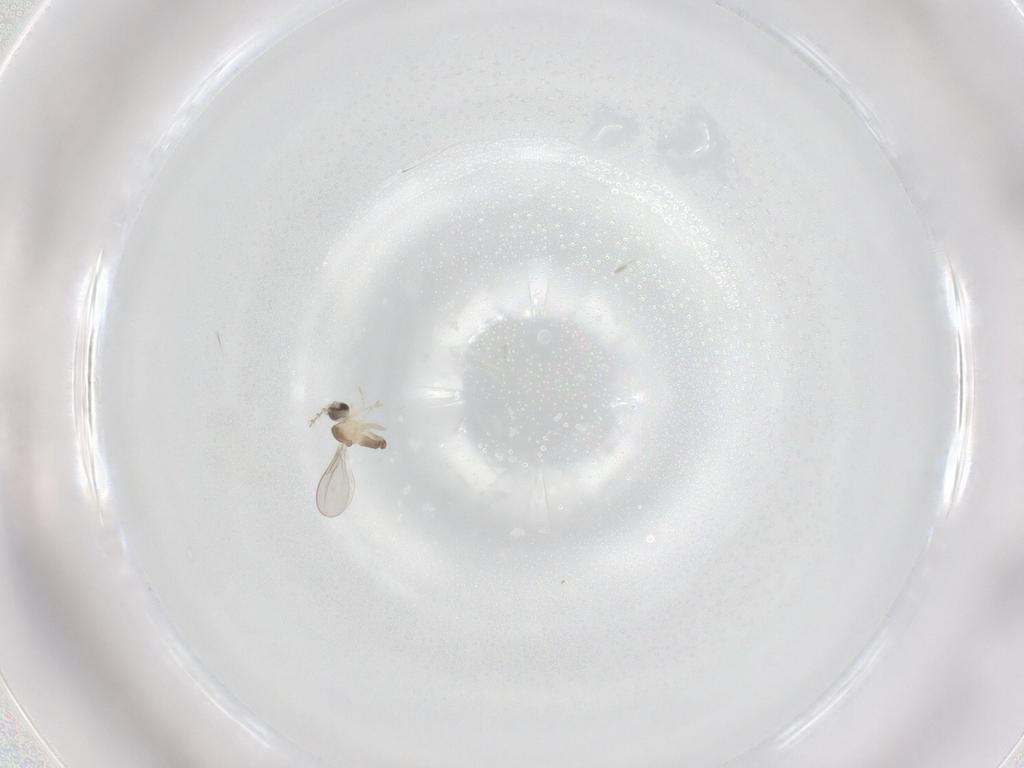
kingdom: Animalia
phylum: Arthropoda
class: Insecta
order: Diptera
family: Cecidomyiidae
